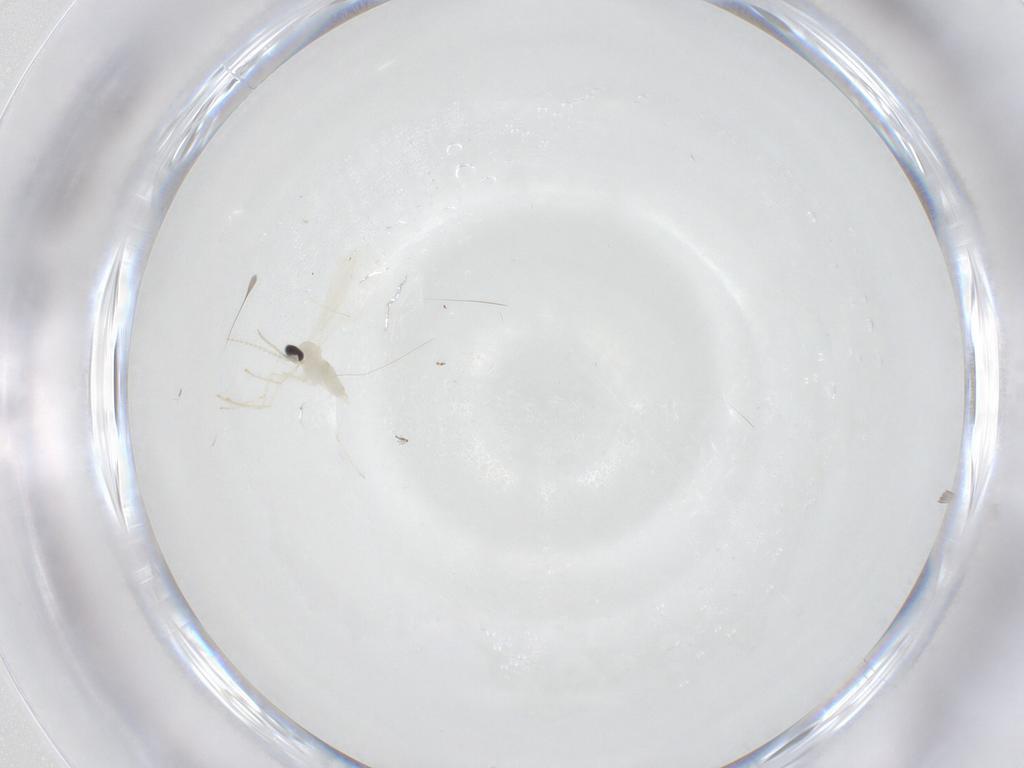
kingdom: Animalia
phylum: Arthropoda
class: Insecta
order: Diptera
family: Cecidomyiidae
